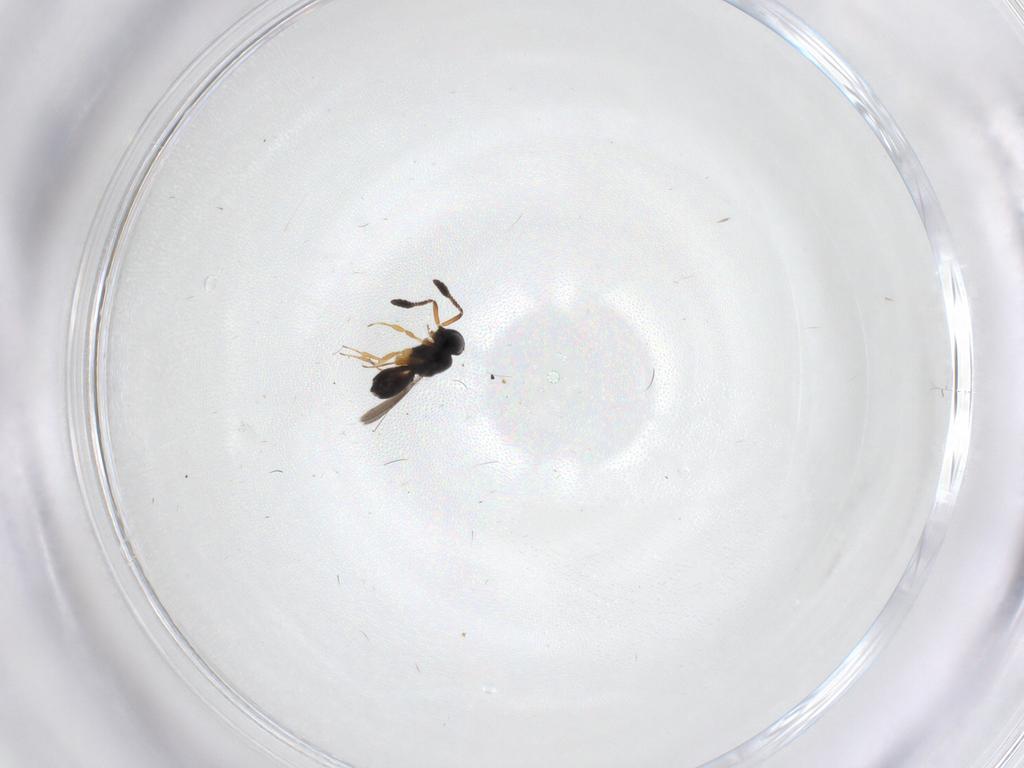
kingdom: Animalia
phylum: Arthropoda
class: Insecta
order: Hymenoptera
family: Scelionidae
